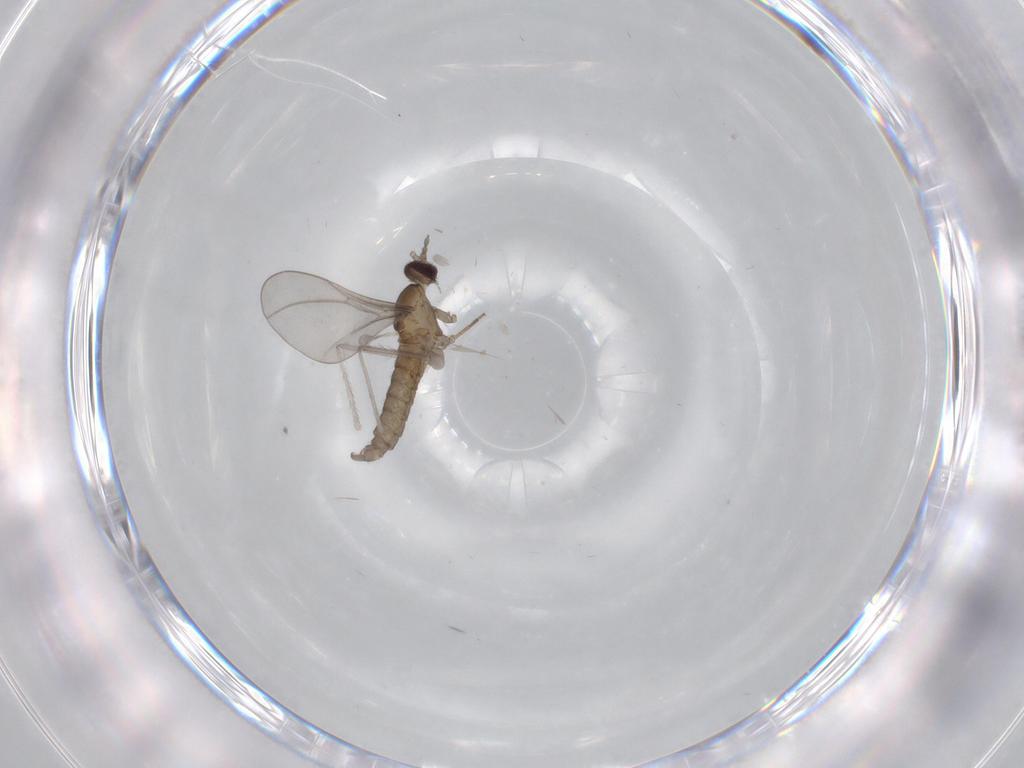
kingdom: Animalia
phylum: Arthropoda
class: Insecta
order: Diptera
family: Chironomidae
